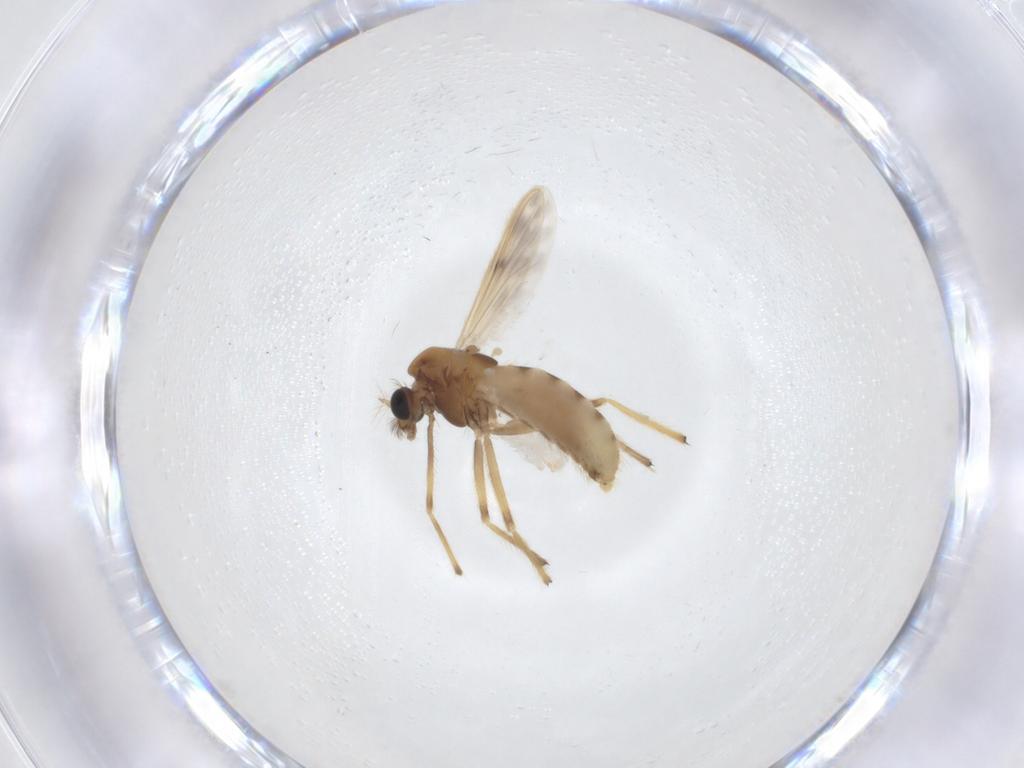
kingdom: Animalia
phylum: Arthropoda
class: Insecta
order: Diptera
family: Chironomidae
